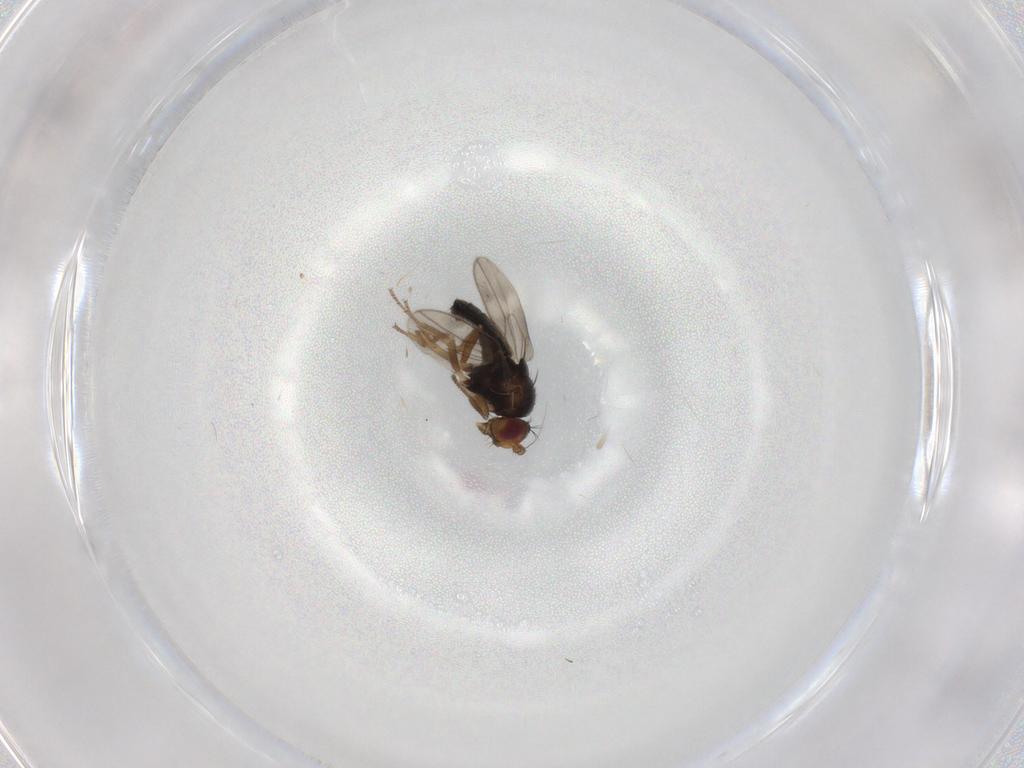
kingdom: Animalia
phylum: Arthropoda
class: Insecta
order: Diptera
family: Sphaeroceridae
